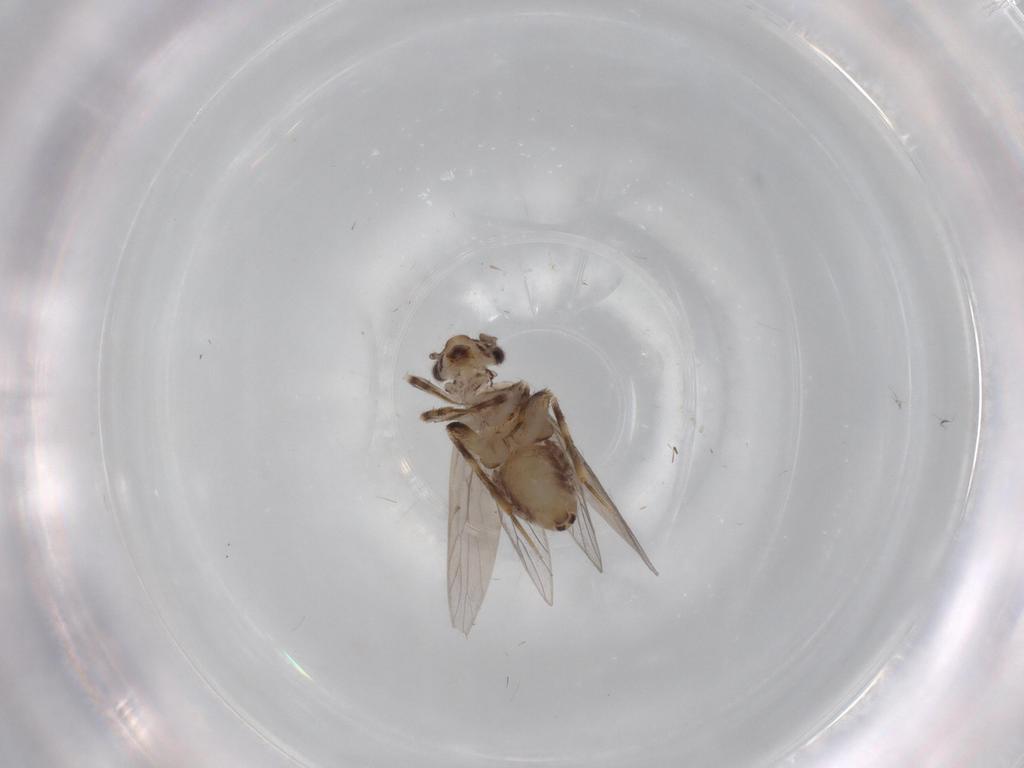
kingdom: Animalia
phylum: Arthropoda
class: Insecta
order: Psocodea
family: Lepidopsocidae
